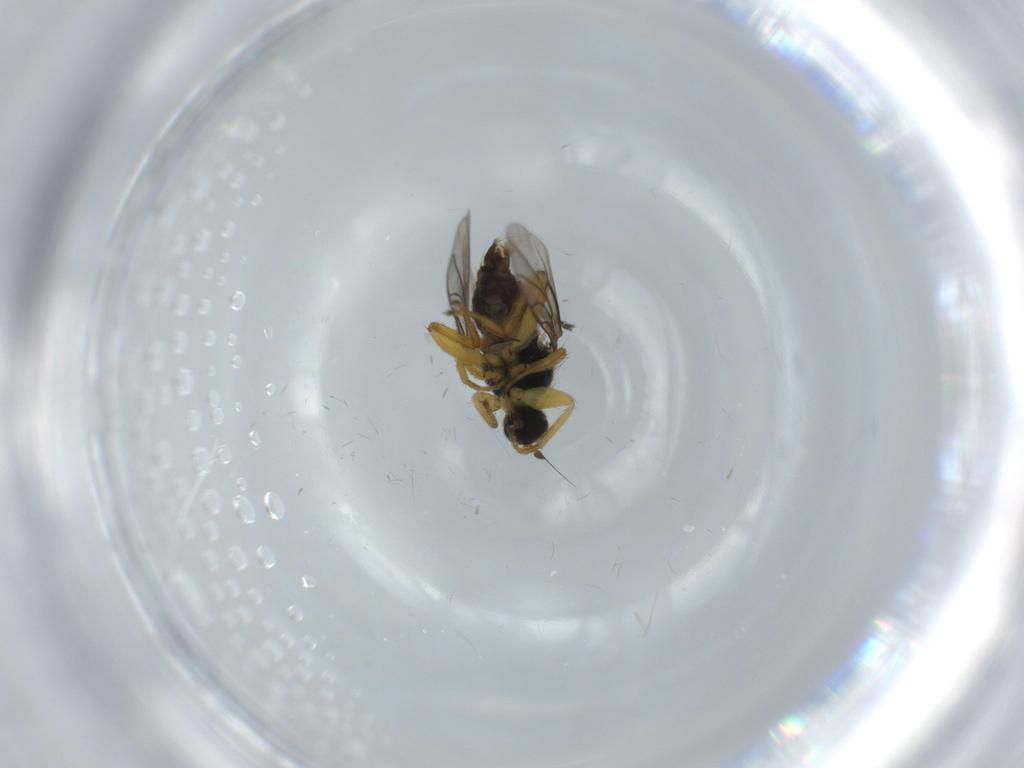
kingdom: Animalia
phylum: Arthropoda
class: Insecta
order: Diptera
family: Hybotidae
